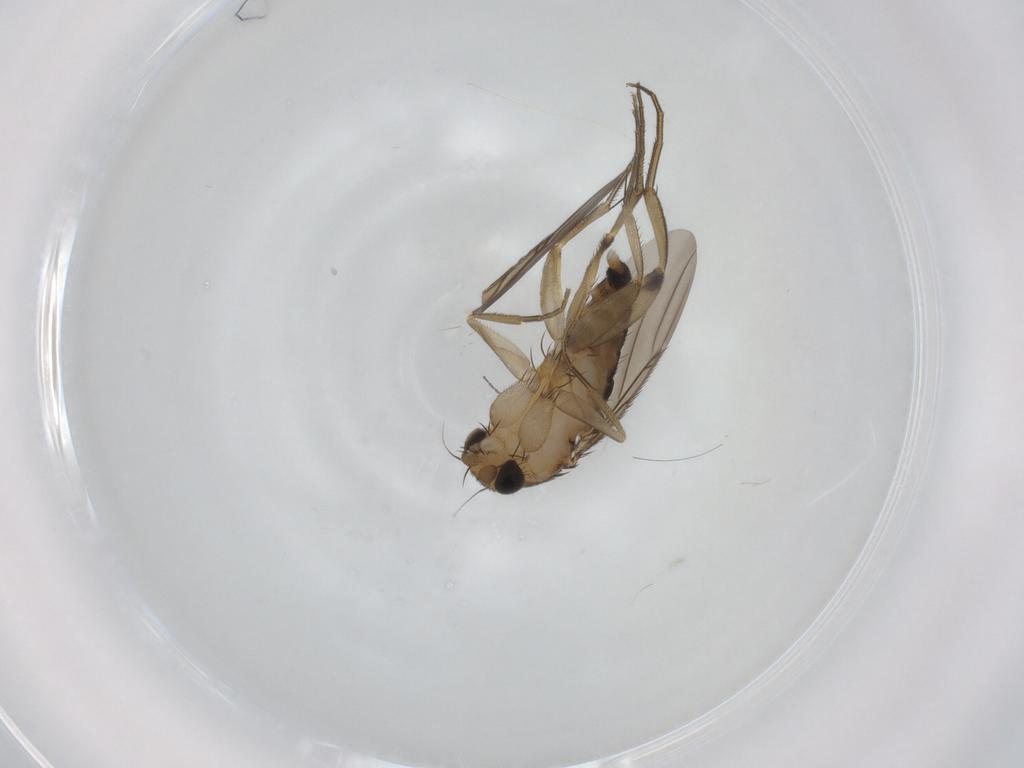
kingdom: Animalia
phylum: Arthropoda
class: Insecta
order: Diptera
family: Phoridae
